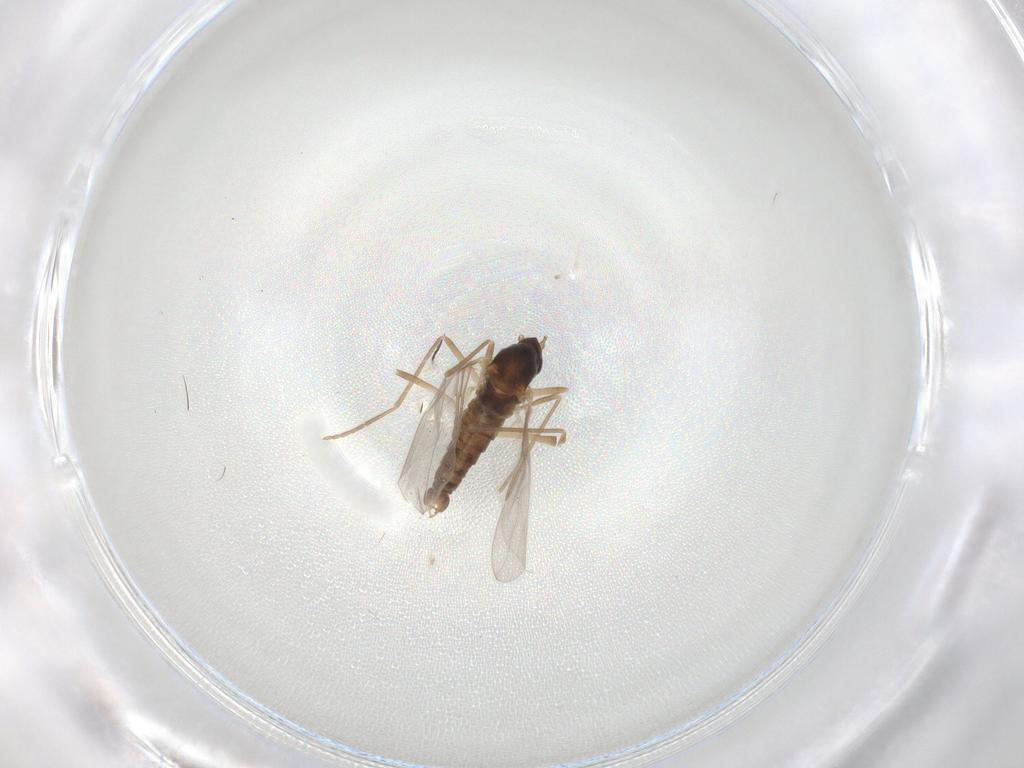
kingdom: Animalia
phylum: Arthropoda
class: Insecta
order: Diptera
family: Cecidomyiidae
